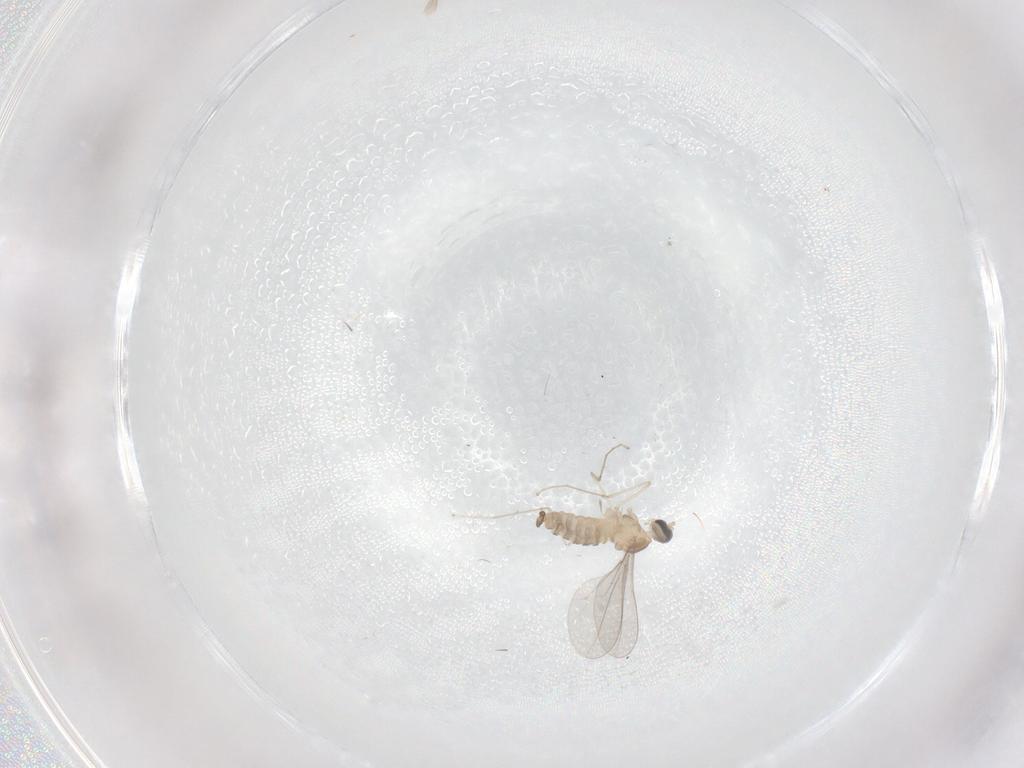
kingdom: Animalia
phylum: Arthropoda
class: Insecta
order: Diptera
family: Cecidomyiidae
